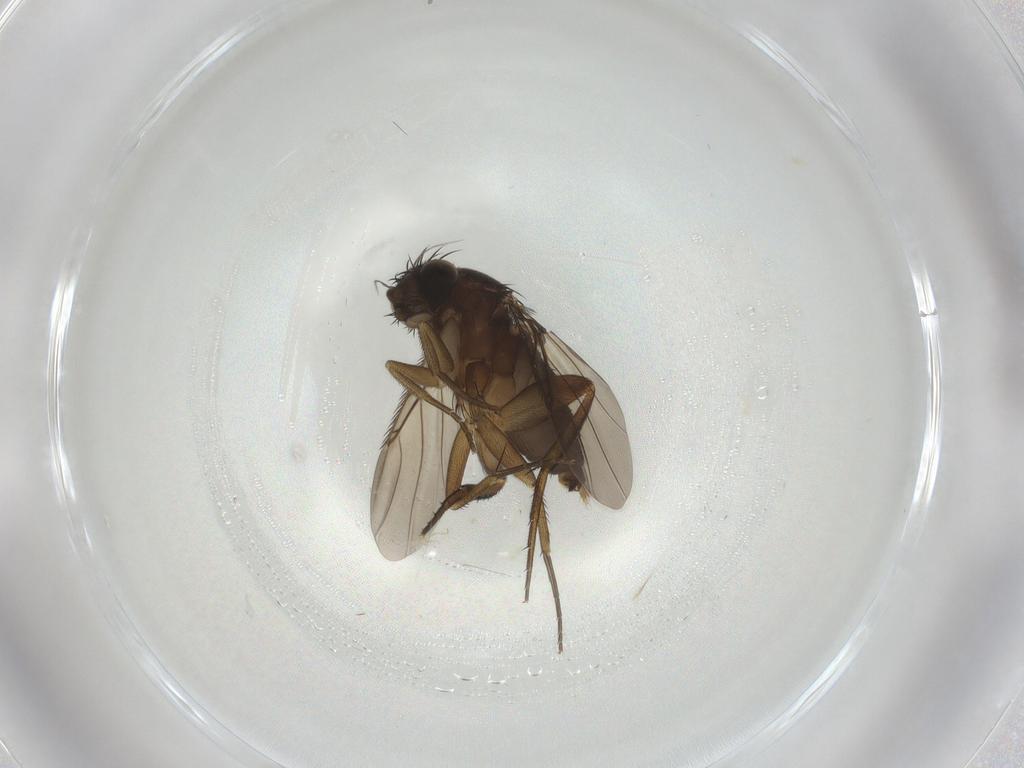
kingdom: Animalia
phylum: Arthropoda
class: Insecta
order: Diptera
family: Phoridae
